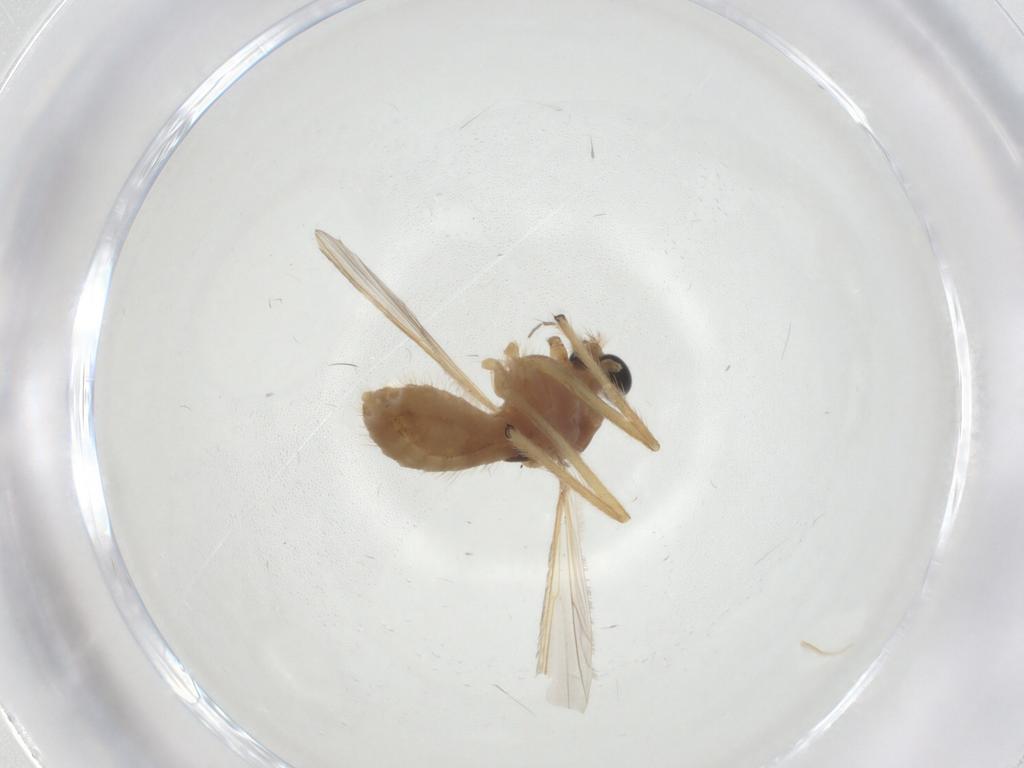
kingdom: Animalia
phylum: Arthropoda
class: Insecta
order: Diptera
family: Chironomidae
